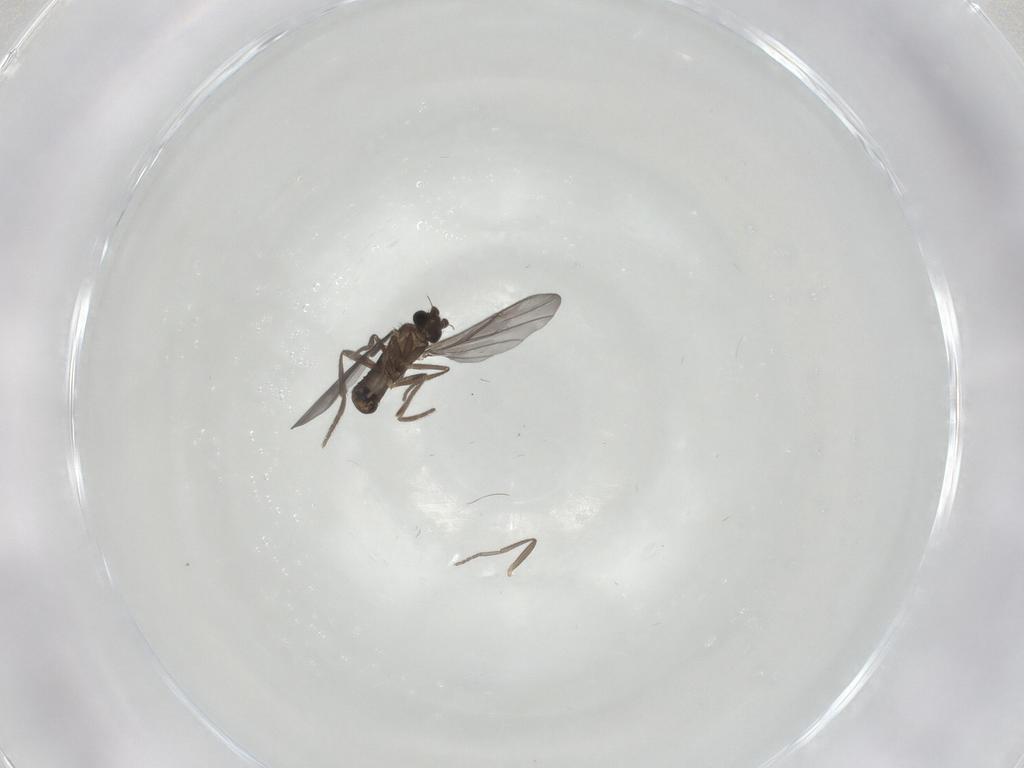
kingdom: Animalia
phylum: Arthropoda
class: Insecta
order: Diptera
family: Phoridae
